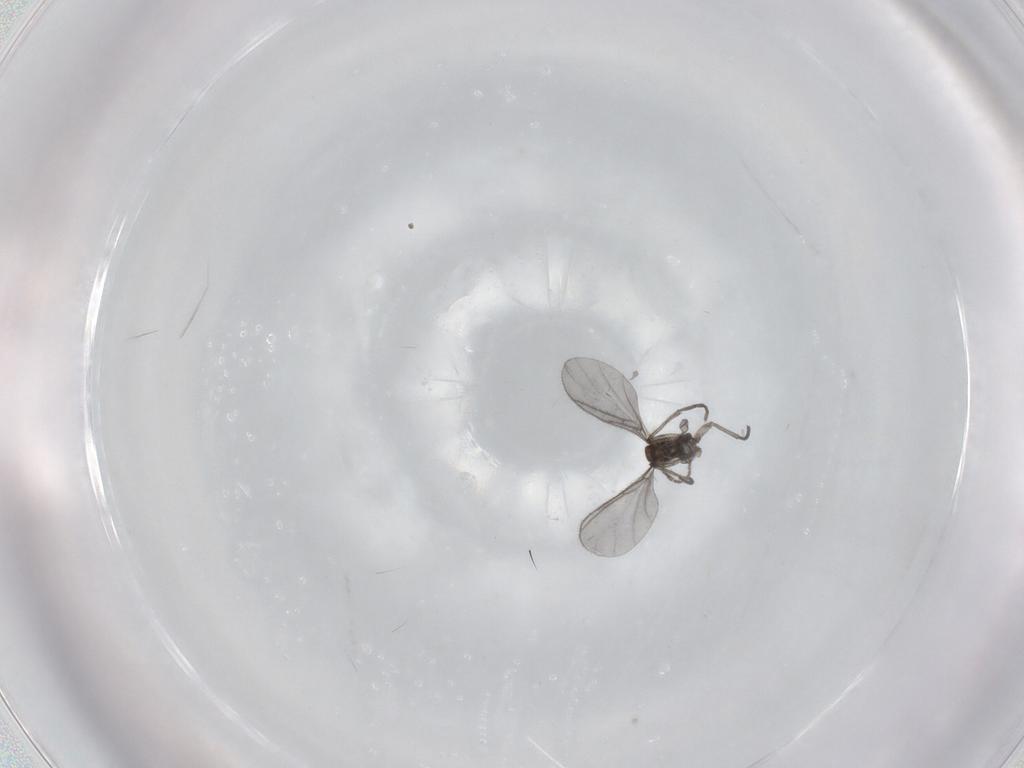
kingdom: Animalia
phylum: Arthropoda
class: Insecta
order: Diptera
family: Sciaridae
